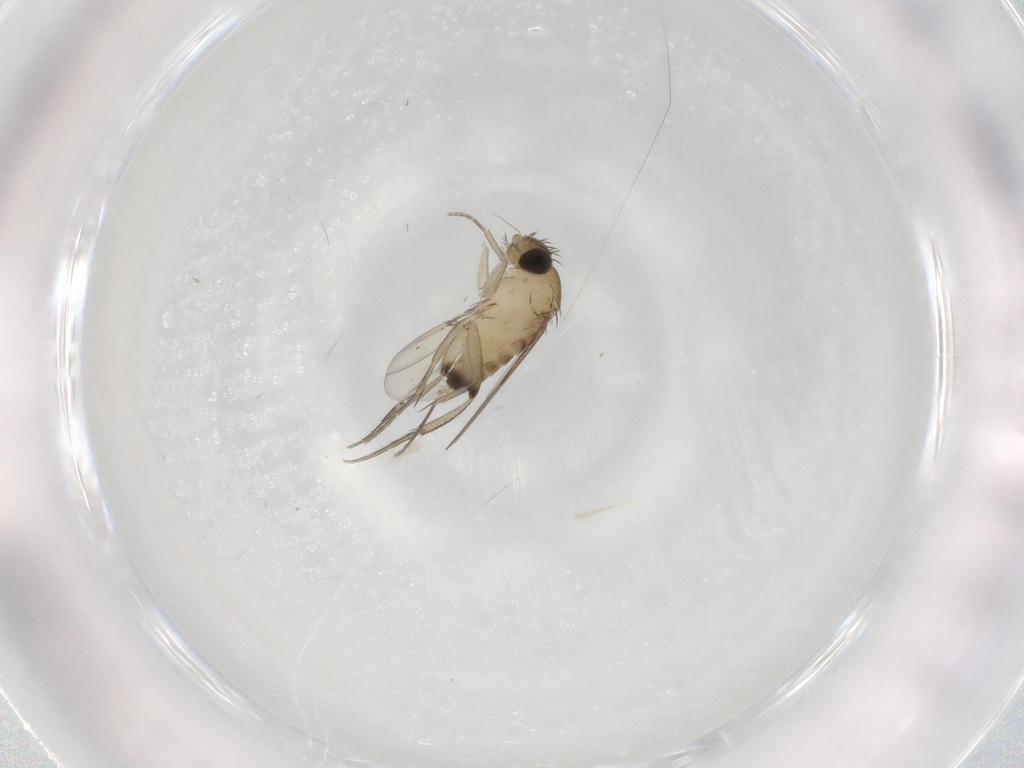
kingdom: Animalia
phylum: Arthropoda
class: Insecta
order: Diptera
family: Phoridae
